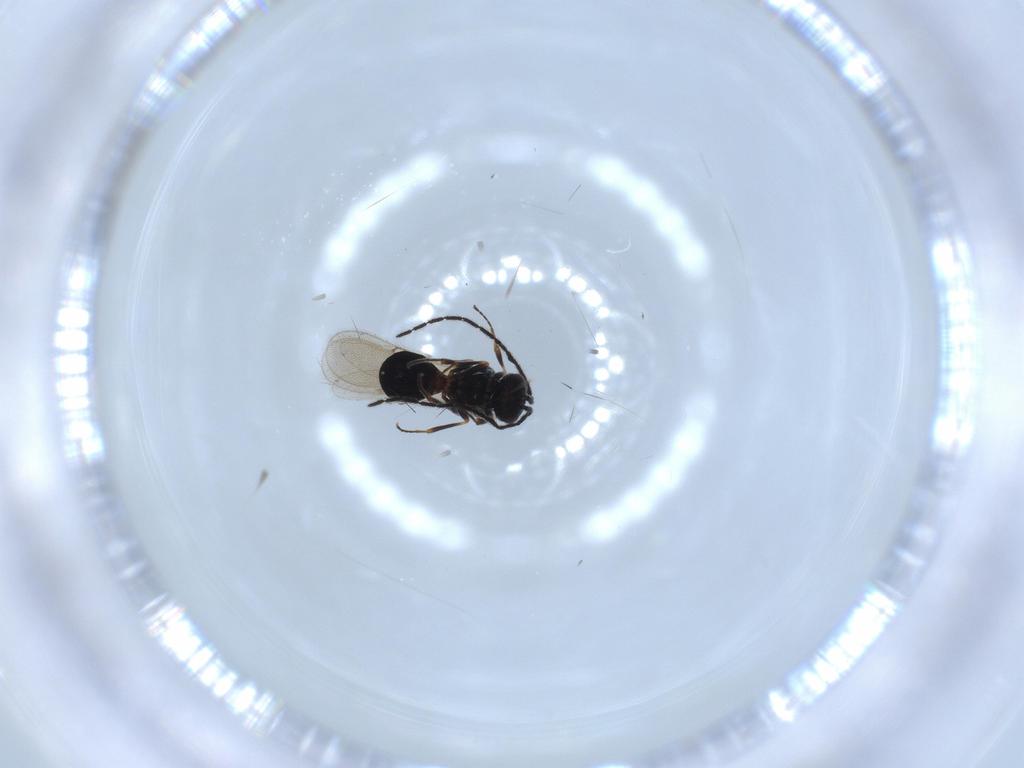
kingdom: Animalia
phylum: Arthropoda
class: Insecta
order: Hymenoptera
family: Scelionidae
